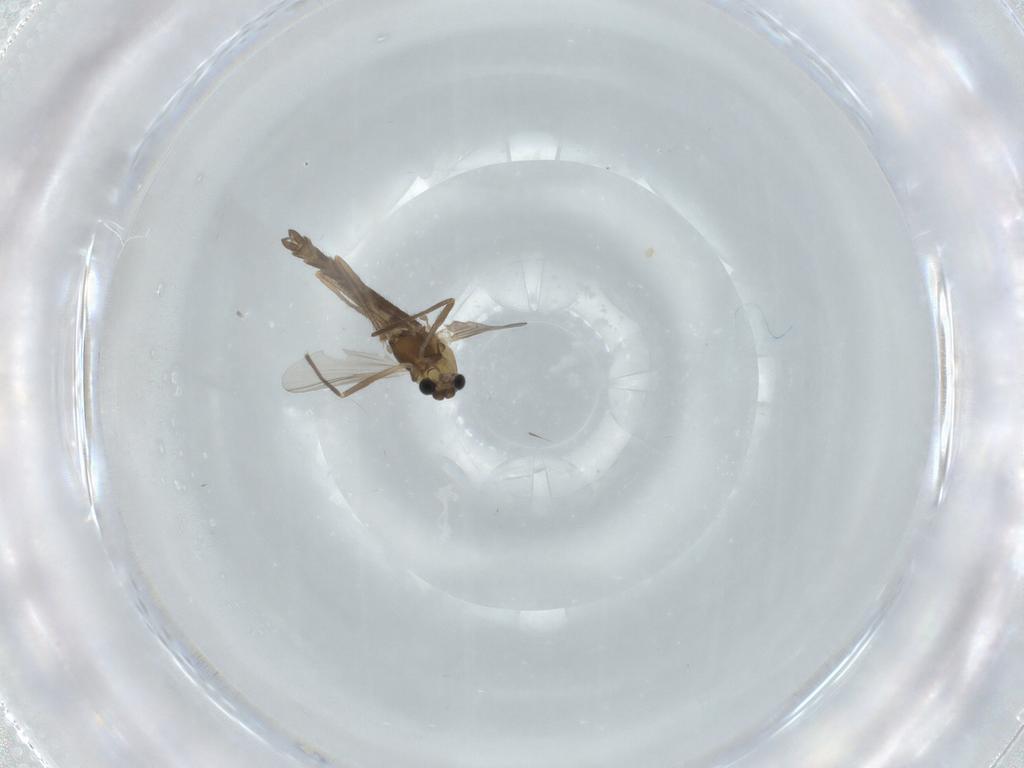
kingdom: Animalia
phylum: Arthropoda
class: Insecta
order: Diptera
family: Chironomidae
